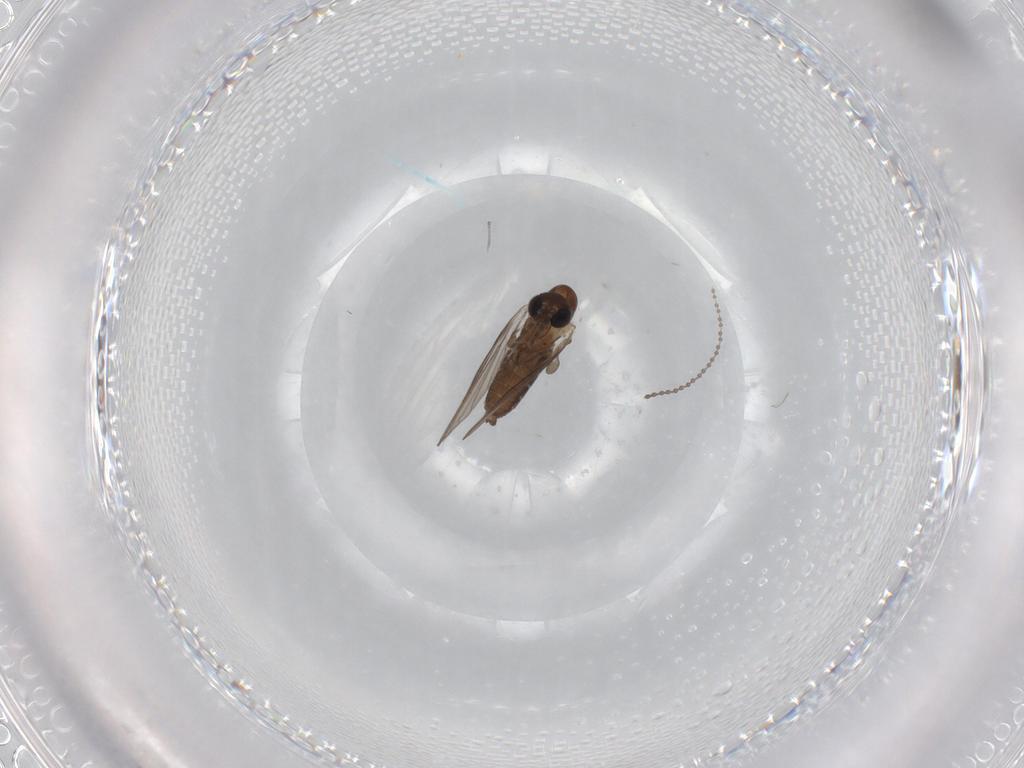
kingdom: Animalia
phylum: Arthropoda
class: Insecta
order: Diptera
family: Cecidomyiidae
